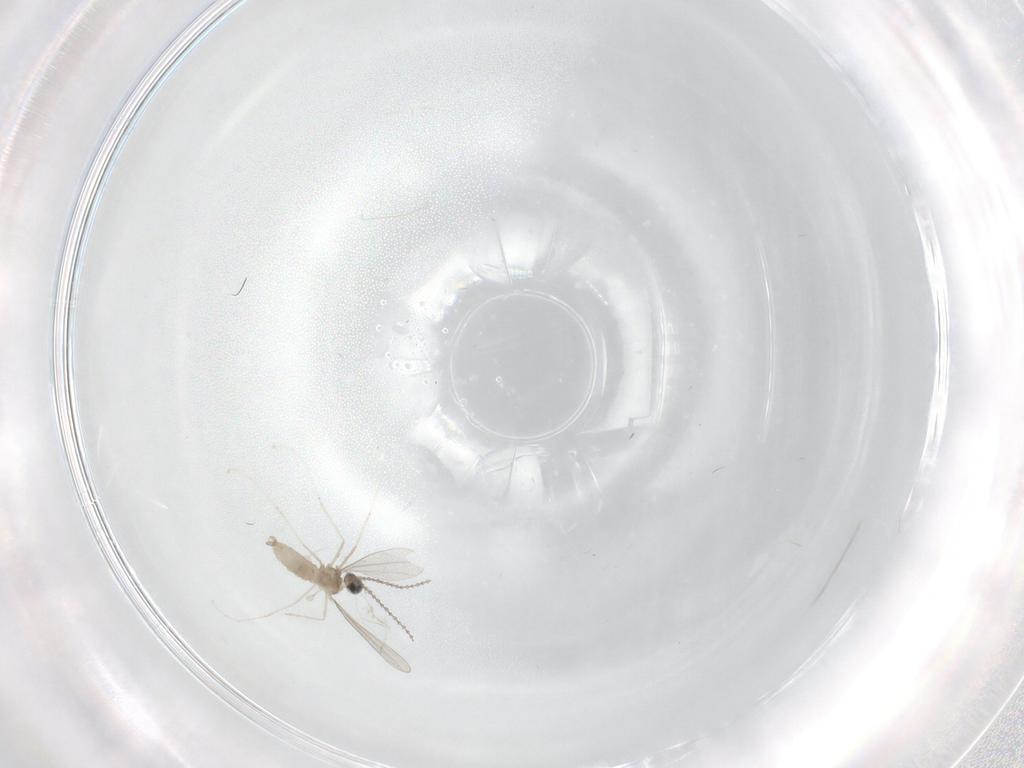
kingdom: Animalia
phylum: Arthropoda
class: Insecta
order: Diptera
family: Cecidomyiidae
